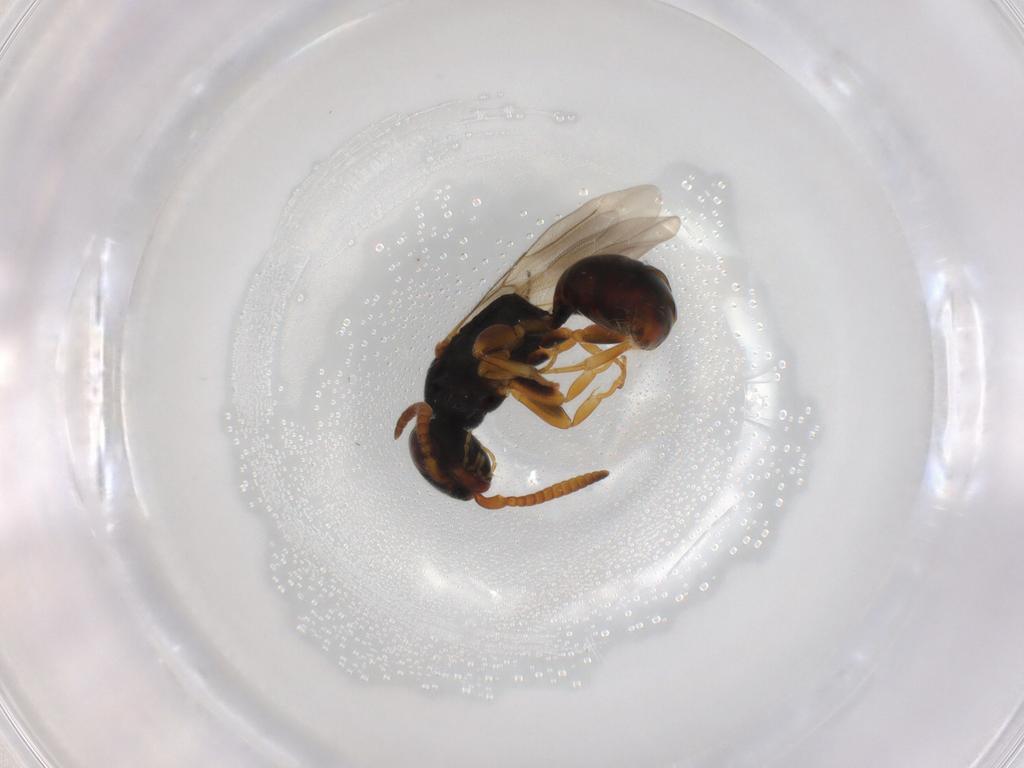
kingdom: Animalia
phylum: Arthropoda
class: Insecta
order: Hymenoptera
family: Bethylidae
